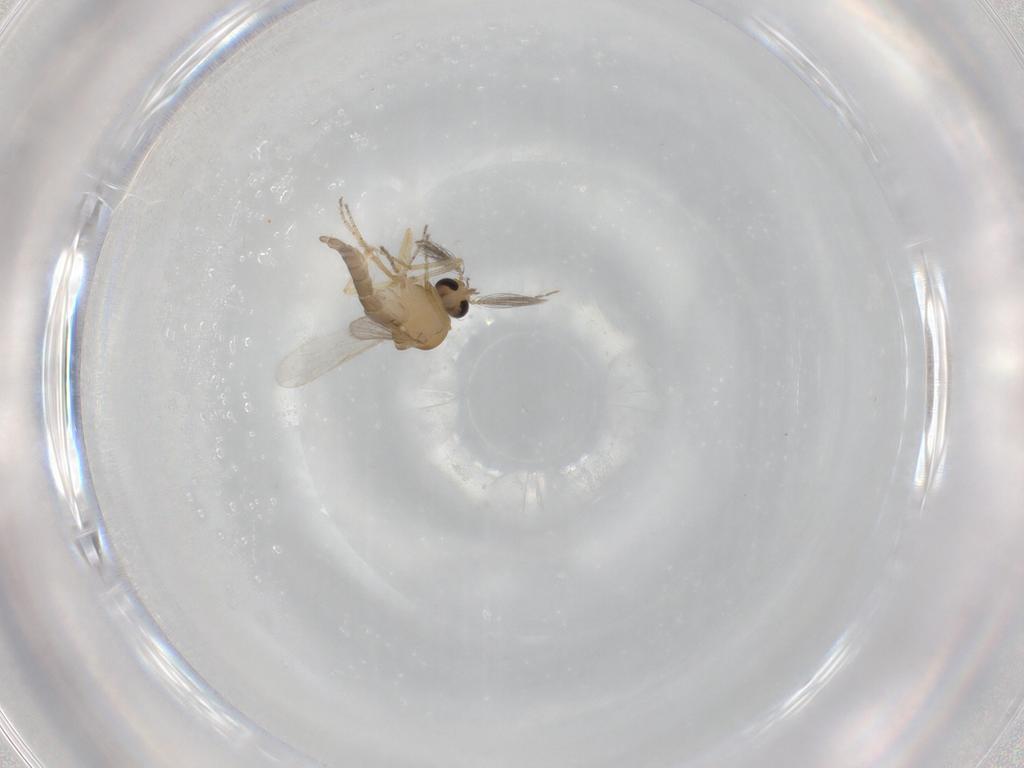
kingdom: Animalia
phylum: Arthropoda
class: Insecta
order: Diptera
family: Ceratopogonidae
